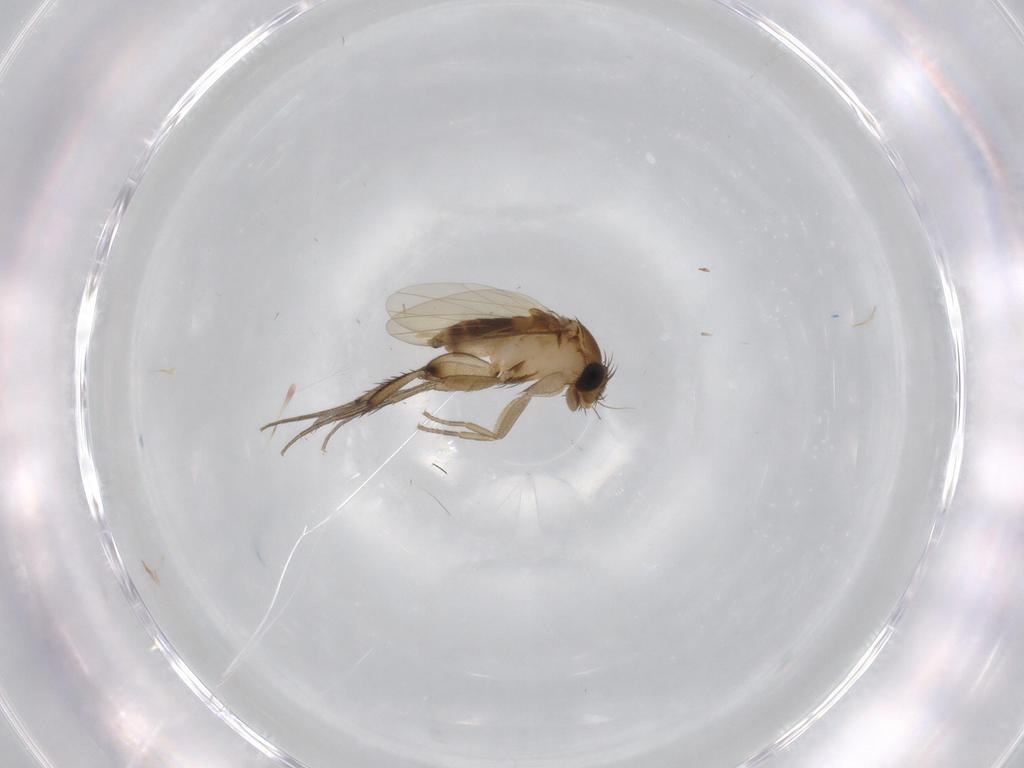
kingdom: Animalia
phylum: Arthropoda
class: Insecta
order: Diptera
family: Phoridae
